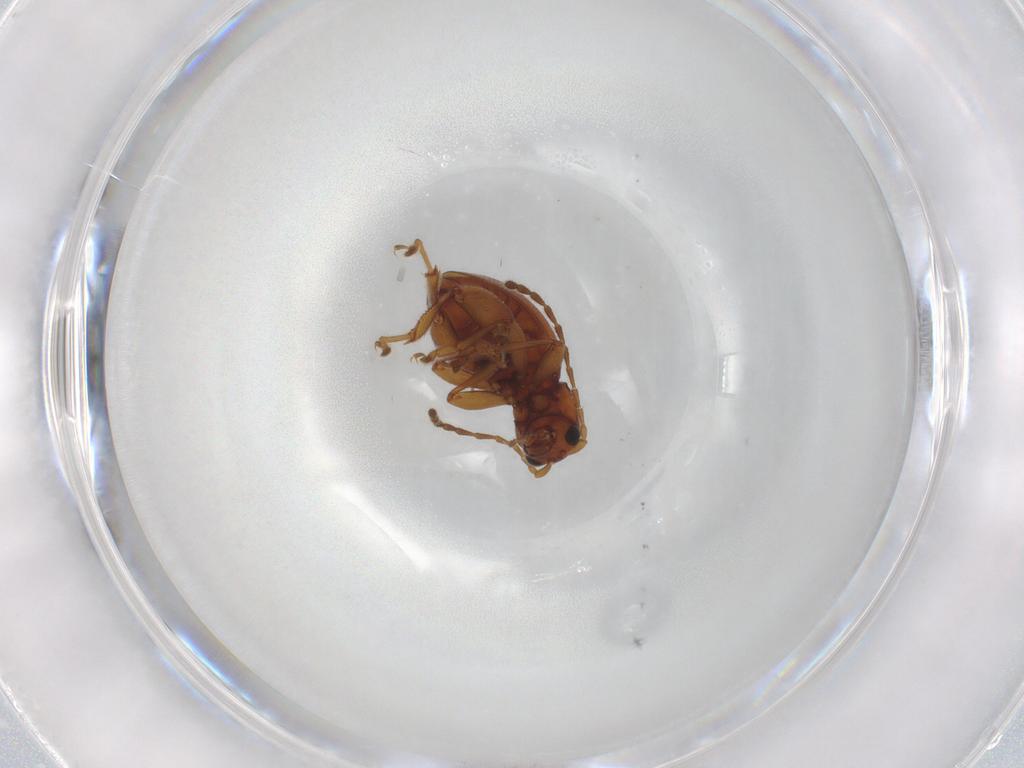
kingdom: Animalia
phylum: Arthropoda
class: Insecta
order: Coleoptera
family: Chrysomelidae
